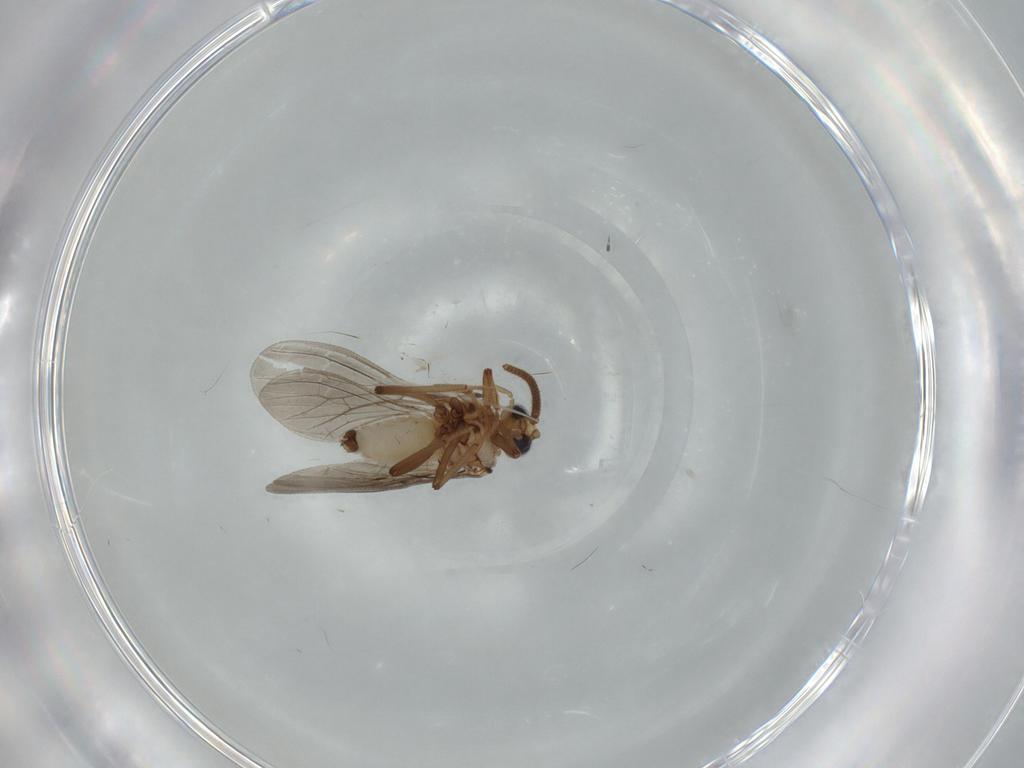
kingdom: Animalia
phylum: Arthropoda
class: Insecta
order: Neuroptera
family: Coniopterygidae
